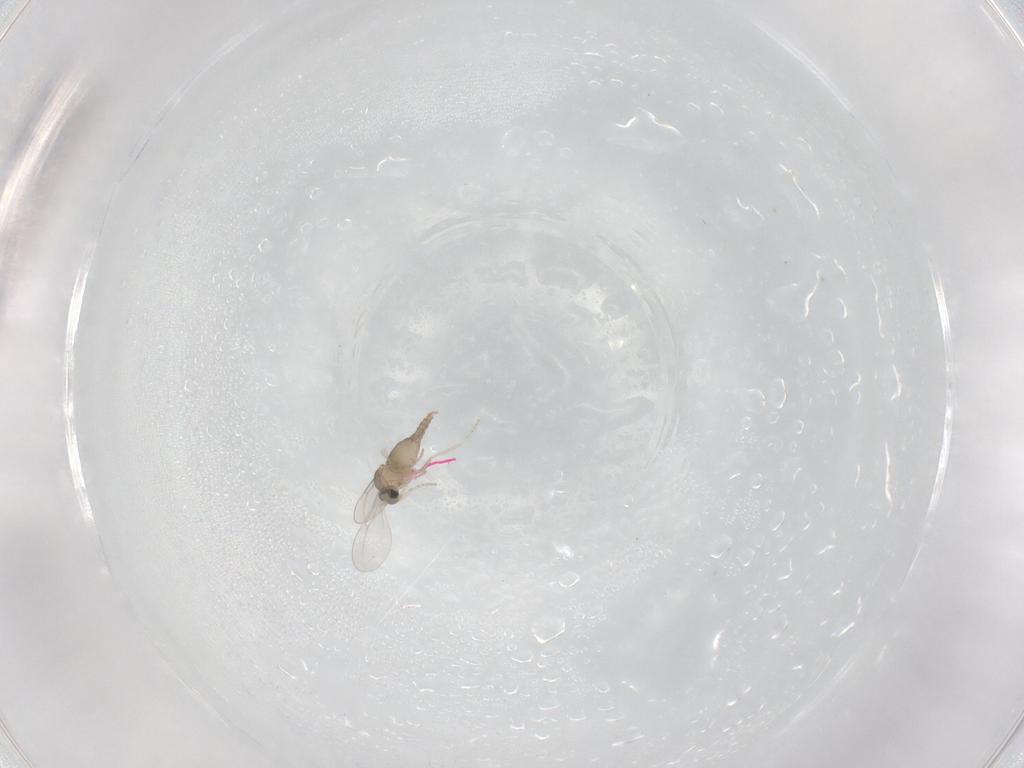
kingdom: Animalia
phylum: Arthropoda
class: Insecta
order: Diptera
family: Cecidomyiidae
